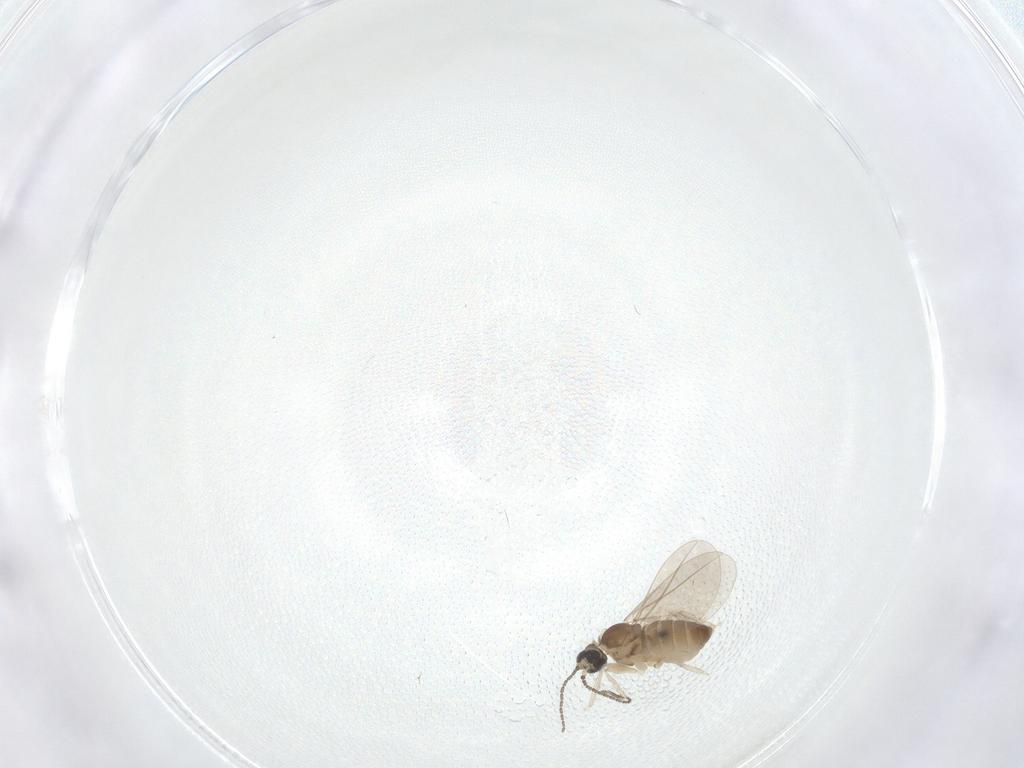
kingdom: Animalia
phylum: Arthropoda
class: Insecta
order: Diptera
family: Cecidomyiidae
